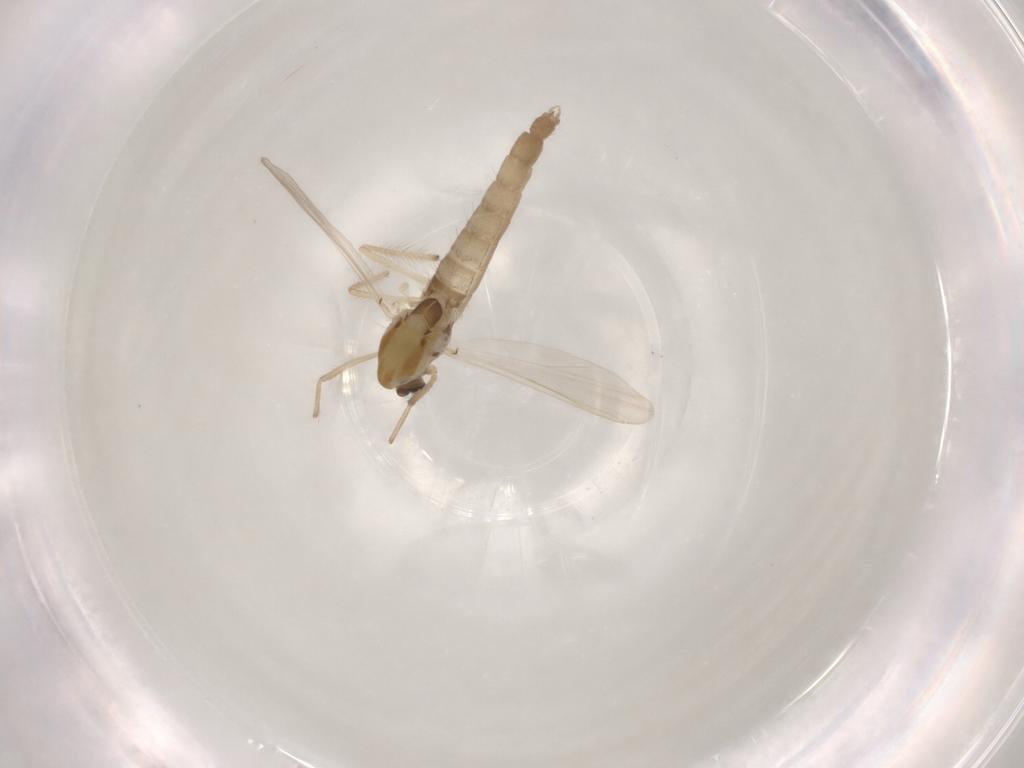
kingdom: Animalia
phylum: Arthropoda
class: Insecta
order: Diptera
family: Chironomidae
